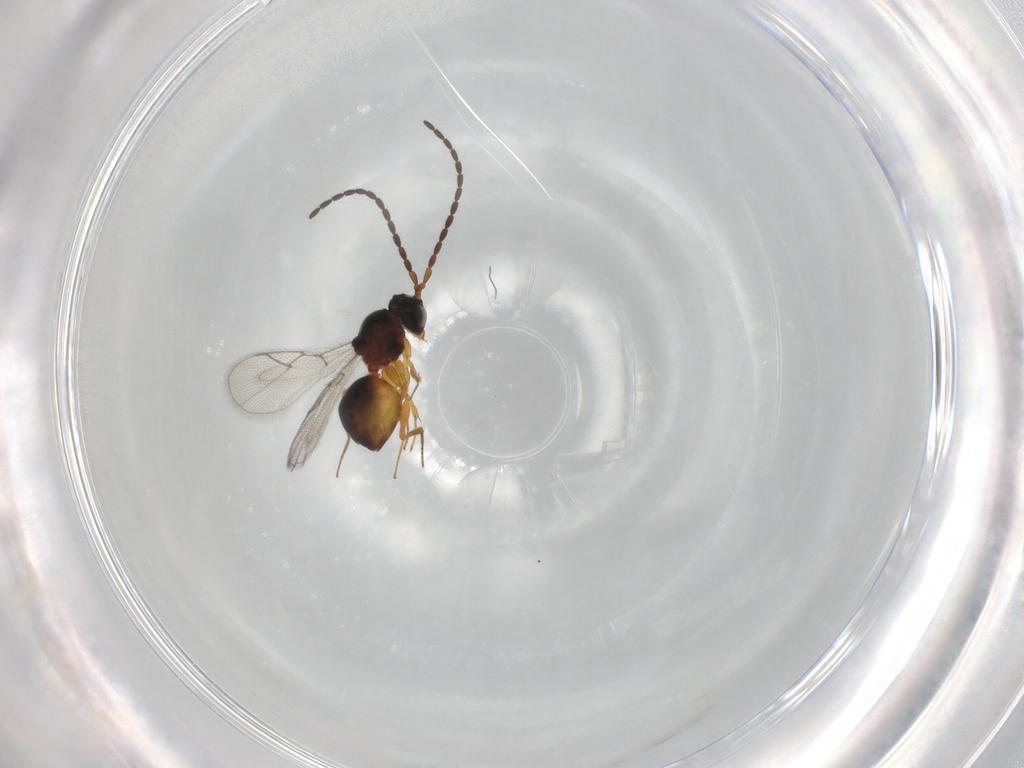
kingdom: Animalia
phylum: Arthropoda
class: Insecta
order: Hymenoptera
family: Figitidae
